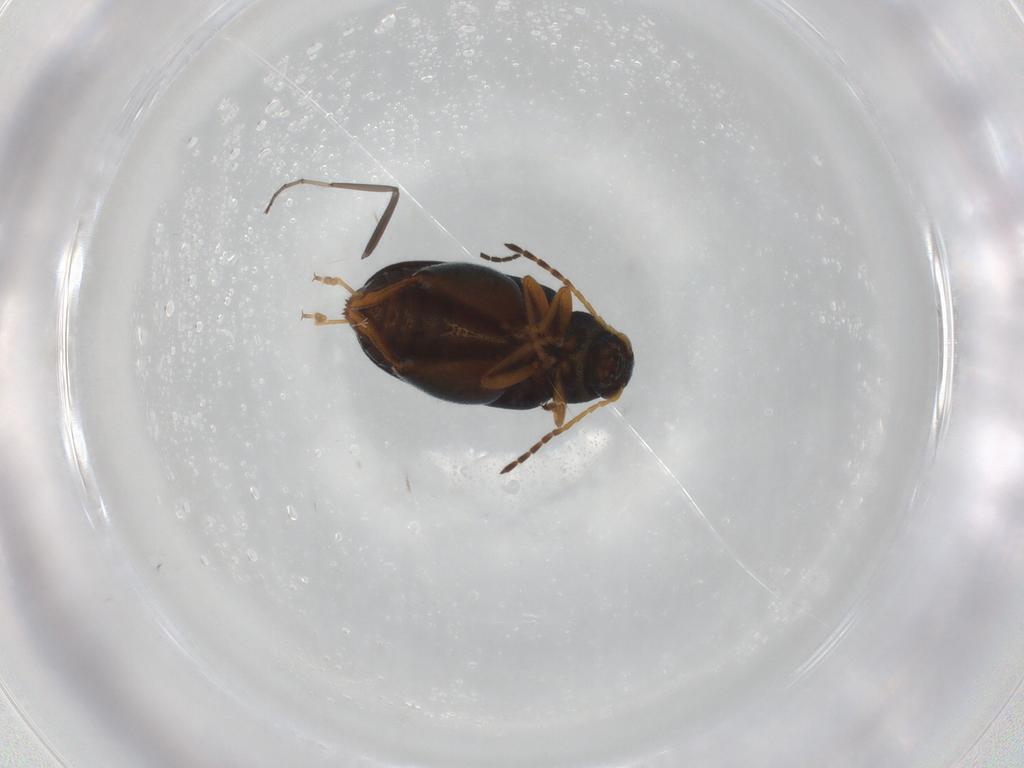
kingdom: Animalia
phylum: Arthropoda
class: Insecta
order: Coleoptera
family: Chrysomelidae
